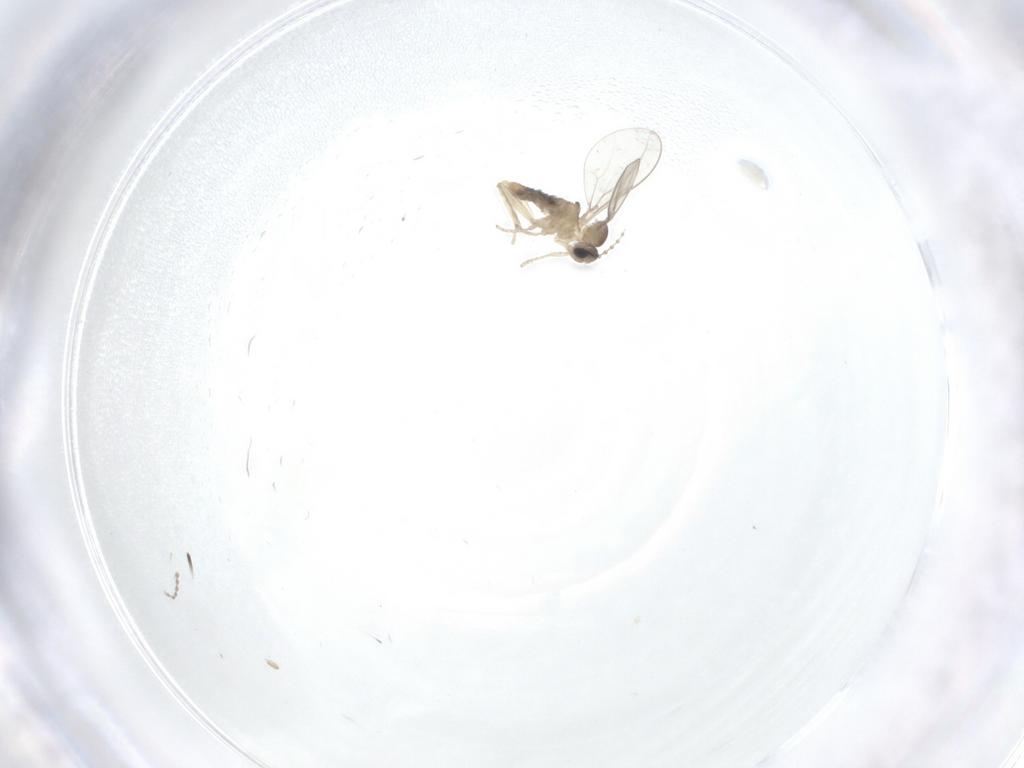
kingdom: Animalia
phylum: Arthropoda
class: Insecta
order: Diptera
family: Cecidomyiidae
